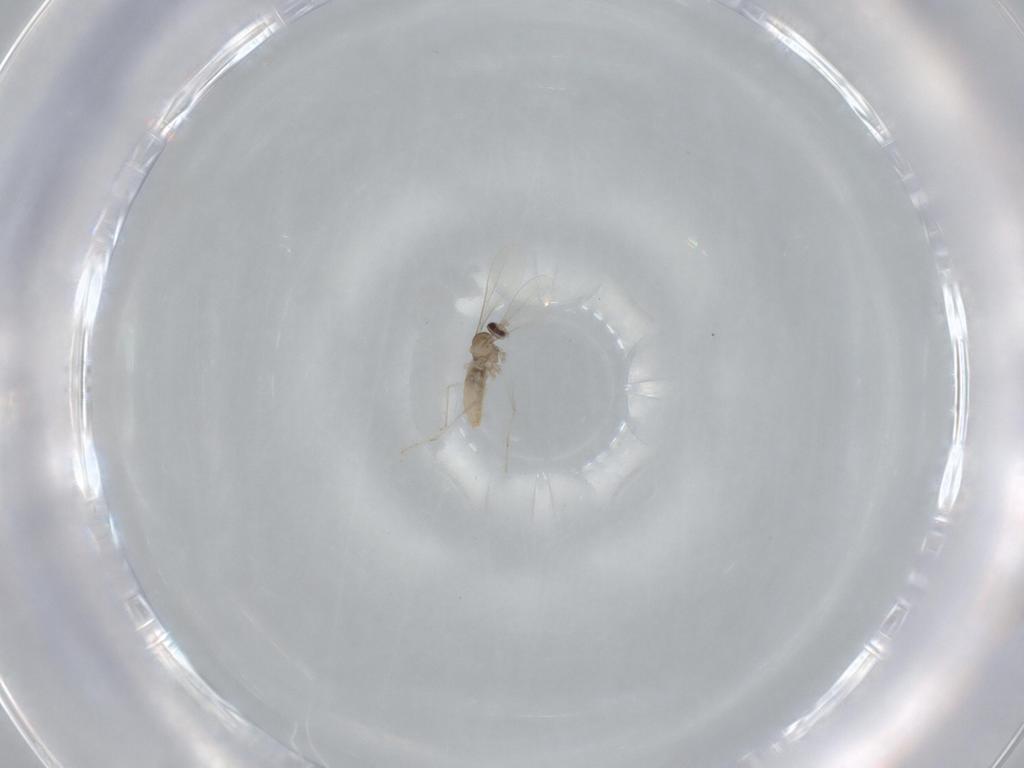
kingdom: Animalia
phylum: Arthropoda
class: Insecta
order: Diptera
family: Cecidomyiidae
